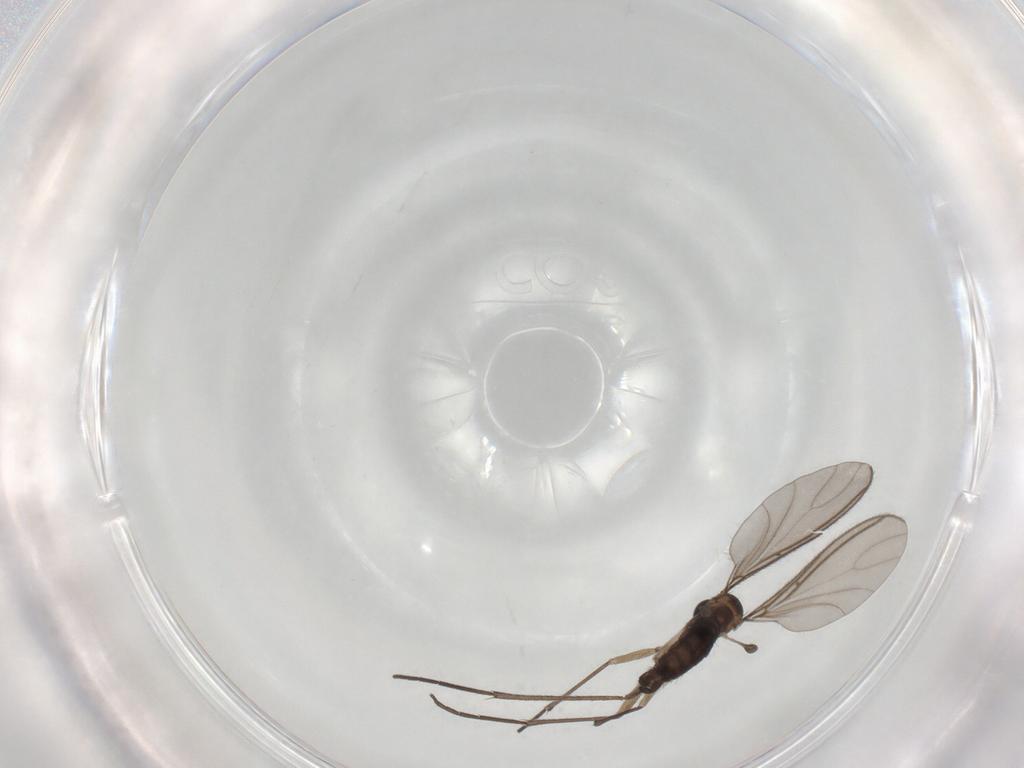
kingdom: Animalia
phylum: Arthropoda
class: Insecta
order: Diptera
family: Sciaridae
